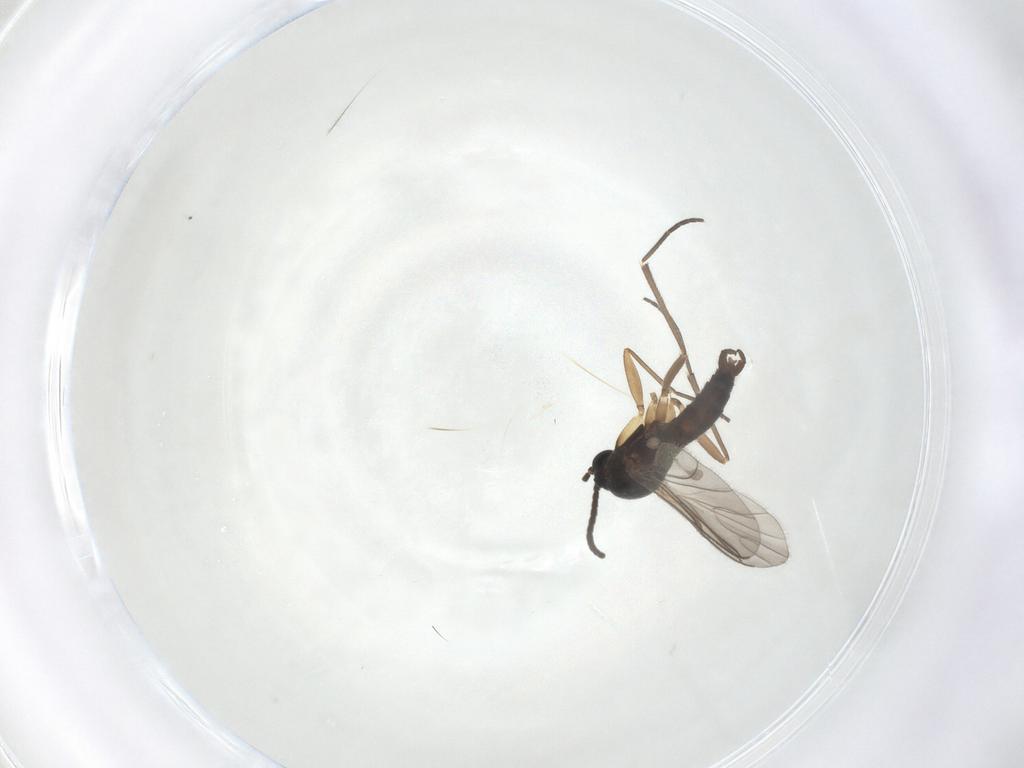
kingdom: Animalia
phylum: Arthropoda
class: Insecta
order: Diptera
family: Sciaridae
